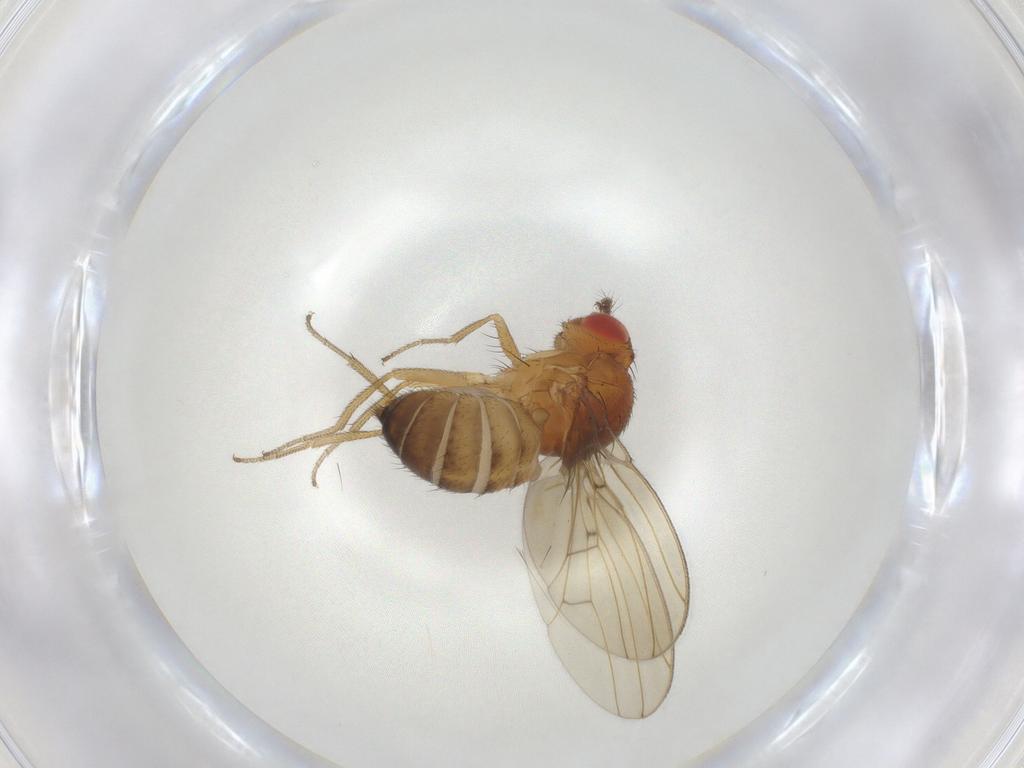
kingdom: Animalia
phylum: Arthropoda
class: Insecta
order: Diptera
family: Drosophilidae
